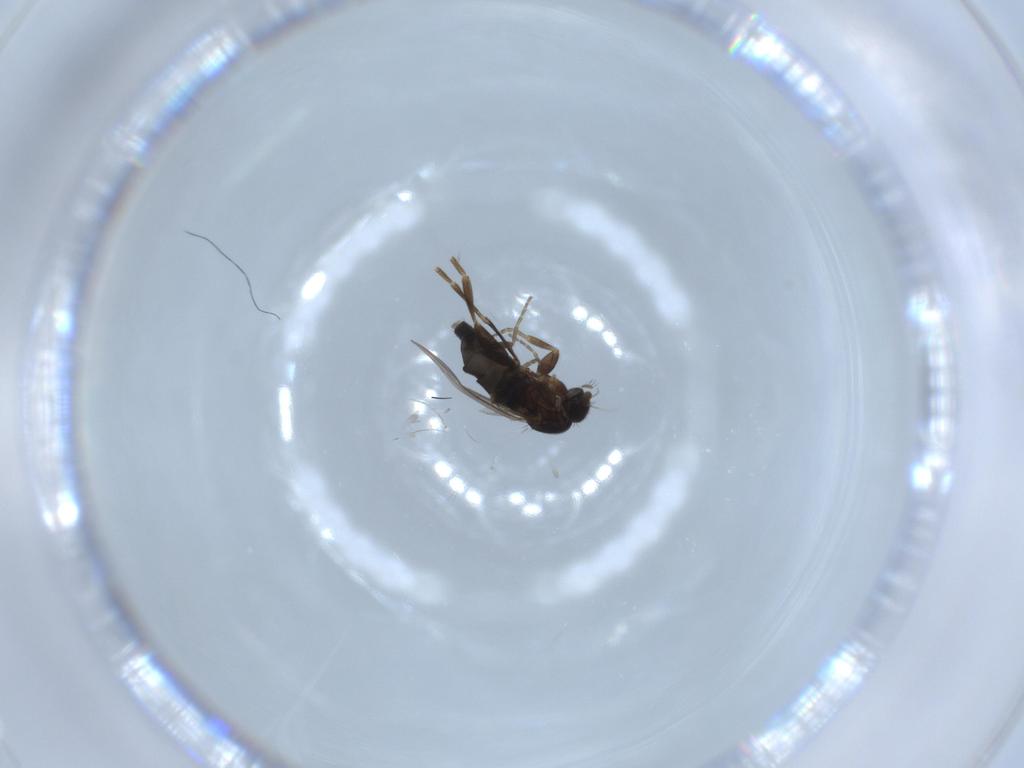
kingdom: Animalia
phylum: Arthropoda
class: Insecta
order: Diptera
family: Phoridae
